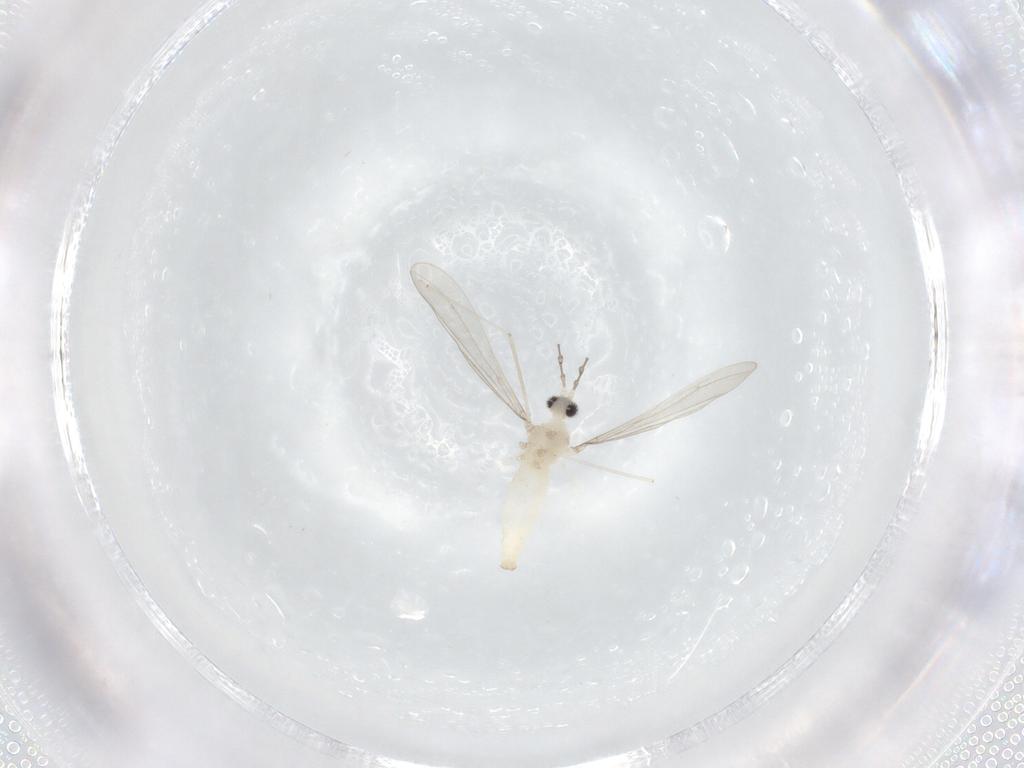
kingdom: Animalia
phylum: Arthropoda
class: Insecta
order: Diptera
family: Cecidomyiidae
